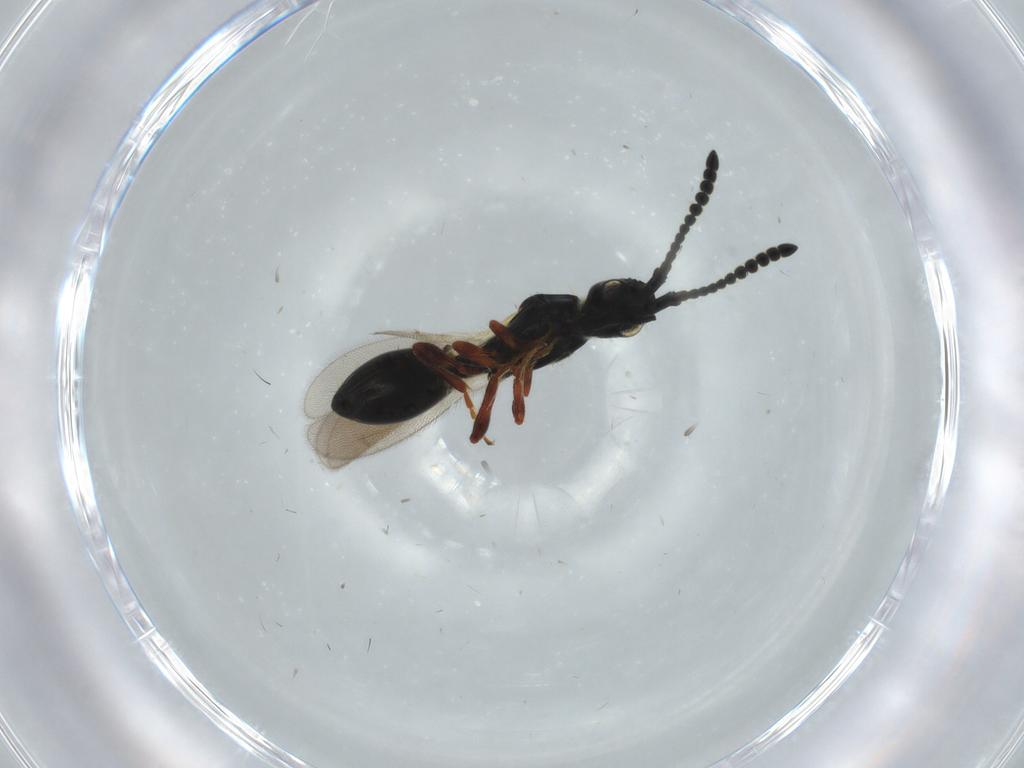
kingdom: Animalia
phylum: Arthropoda
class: Insecta
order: Hymenoptera
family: Diapriidae
